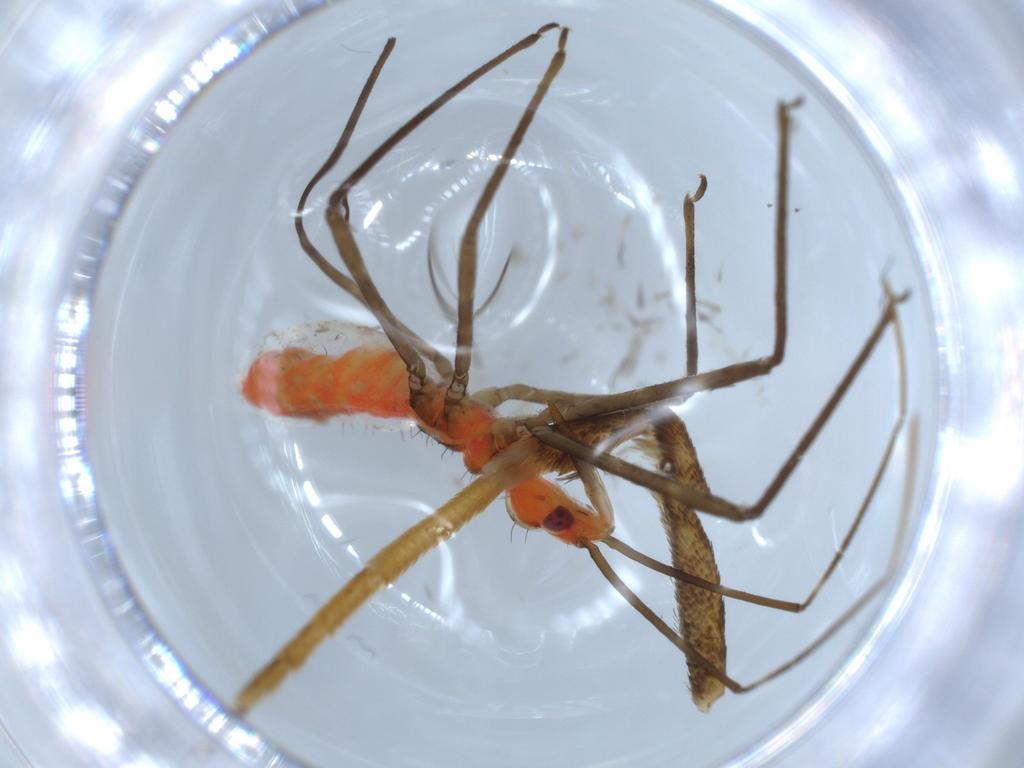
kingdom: Animalia
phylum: Arthropoda
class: Insecta
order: Hemiptera
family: Reduviidae
